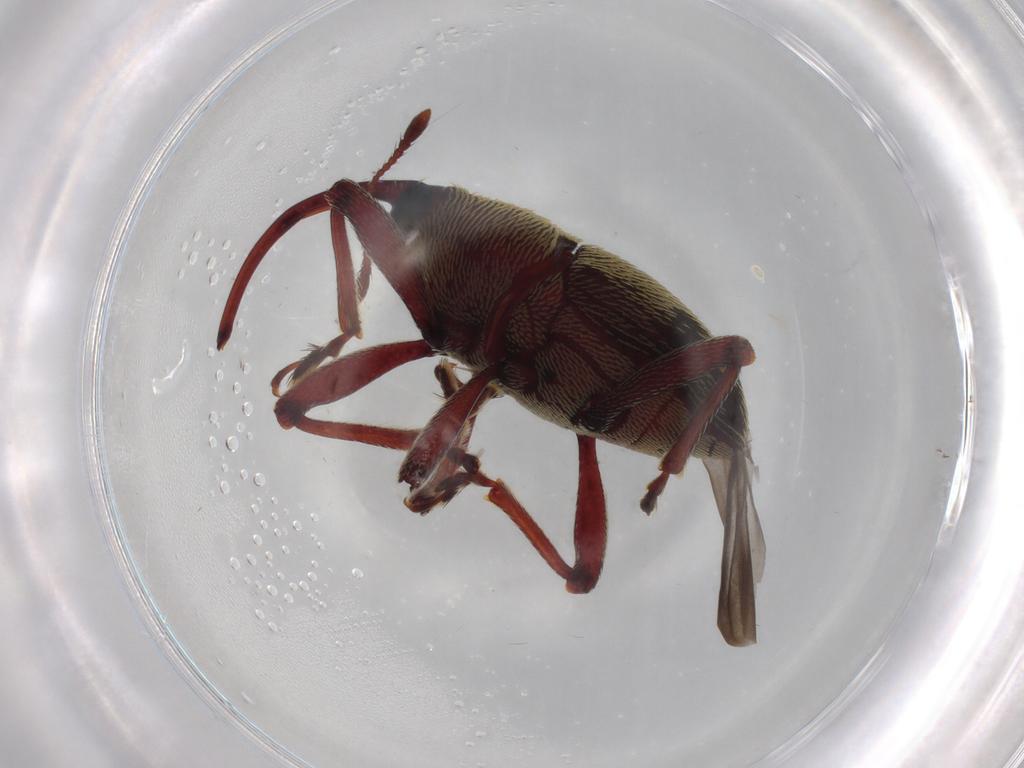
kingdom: Animalia
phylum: Arthropoda
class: Insecta
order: Coleoptera
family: Curculionidae
